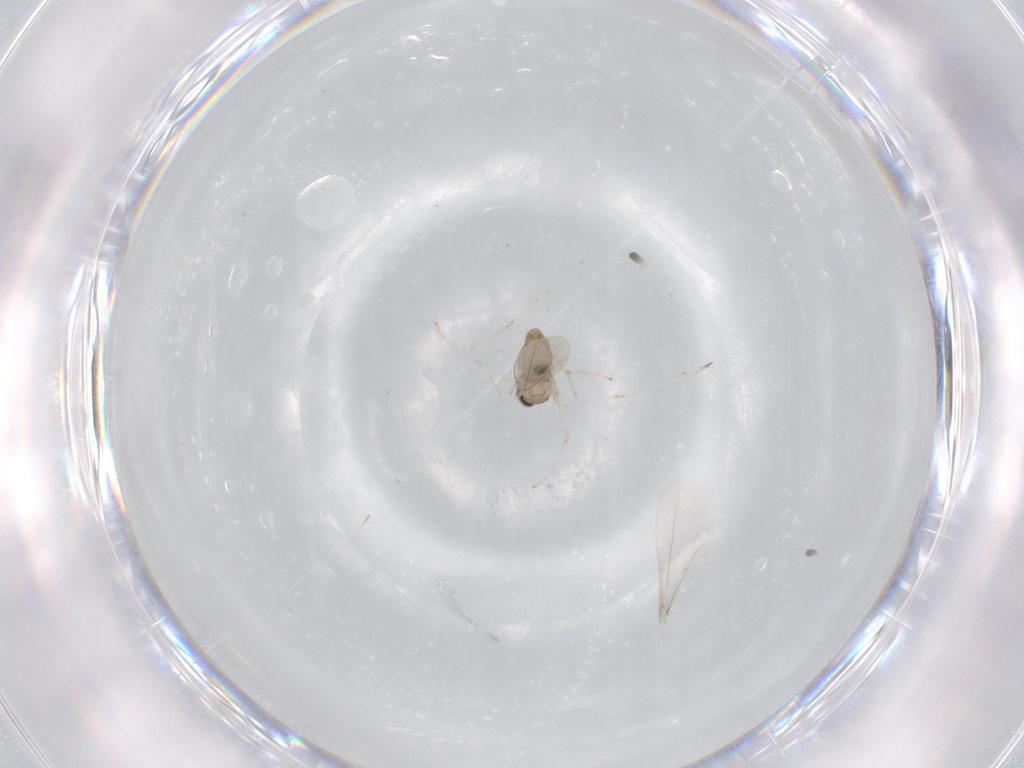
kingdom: Animalia
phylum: Arthropoda
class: Insecta
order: Diptera
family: Cecidomyiidae
